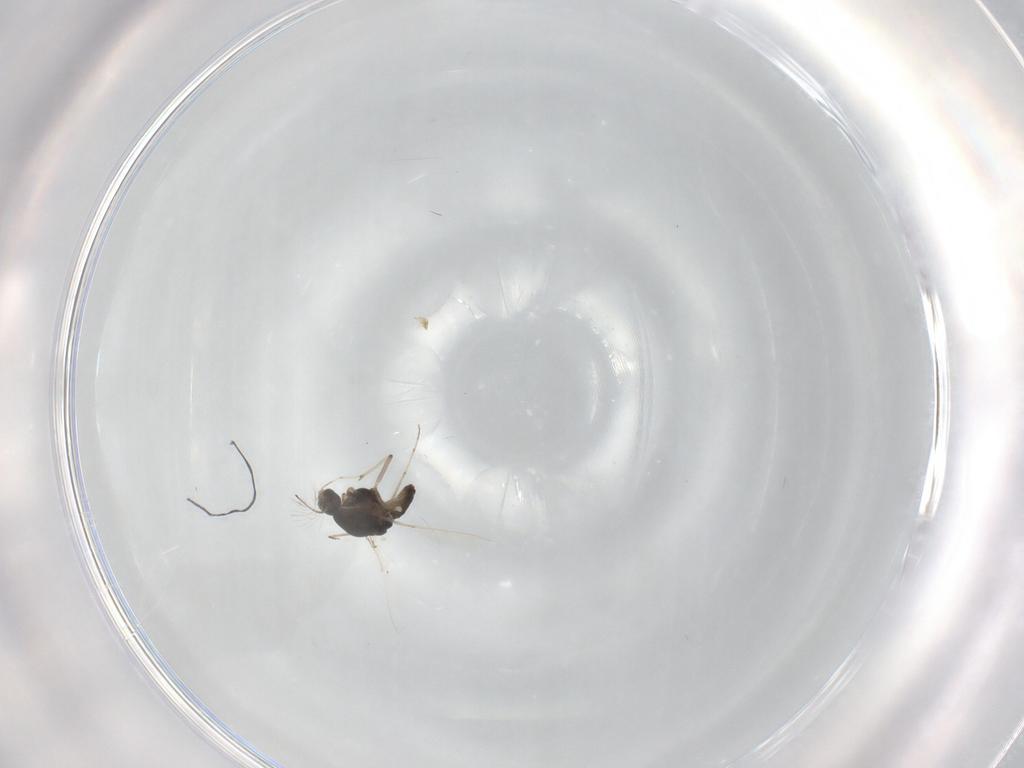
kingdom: Animalia
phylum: Arthropoda
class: Insecta
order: Diptera
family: Chironomidae
